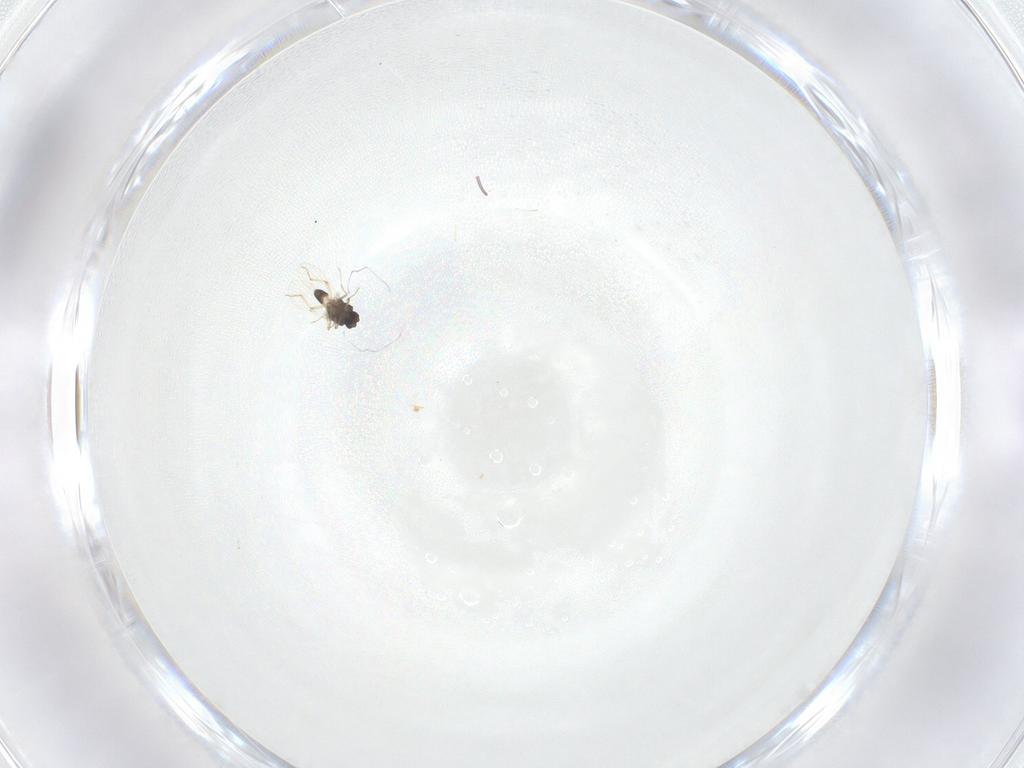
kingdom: Animalia
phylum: Arthropoda
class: Insecta
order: Diptera
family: Chironomidae
